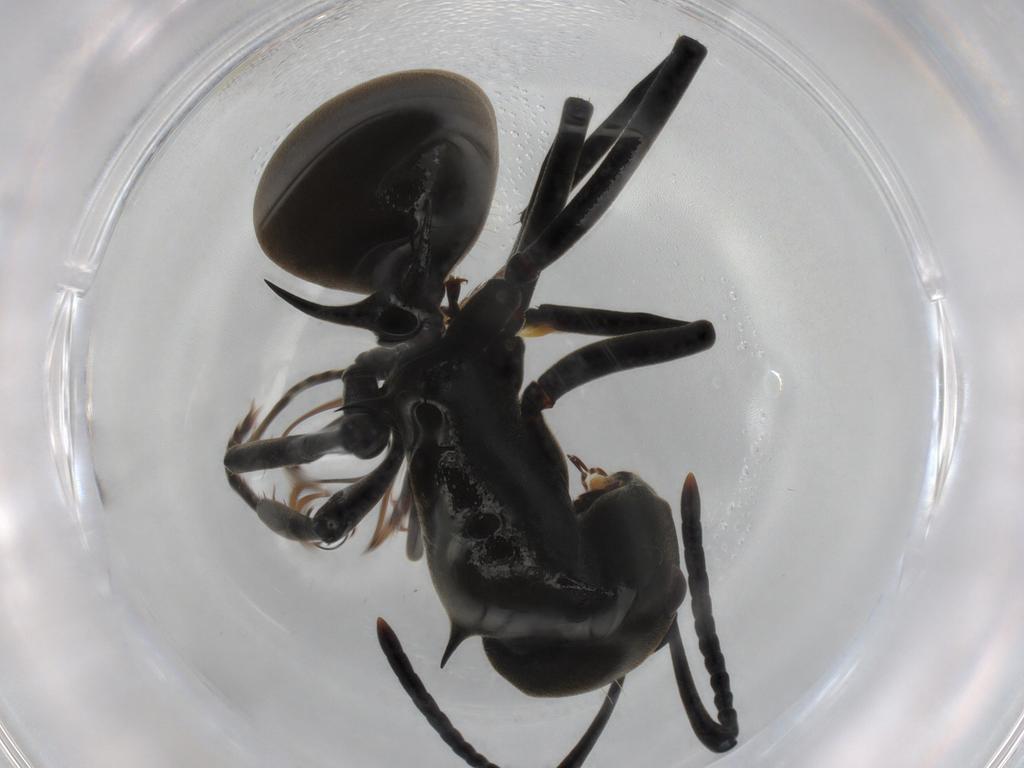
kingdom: Animalia
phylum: Arthropoda
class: Insecta
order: Hymenoptera
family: Formicidae
